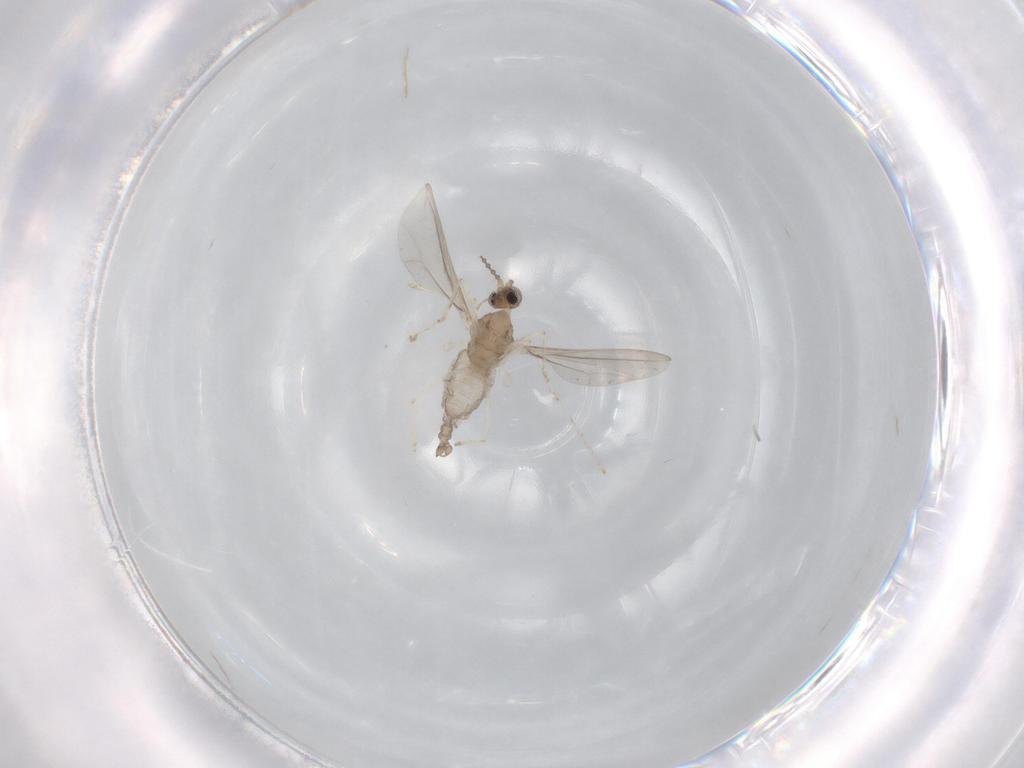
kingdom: Animalia
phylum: Arthropoda
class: Insecta
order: Diptera
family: Cecidomyiidae
